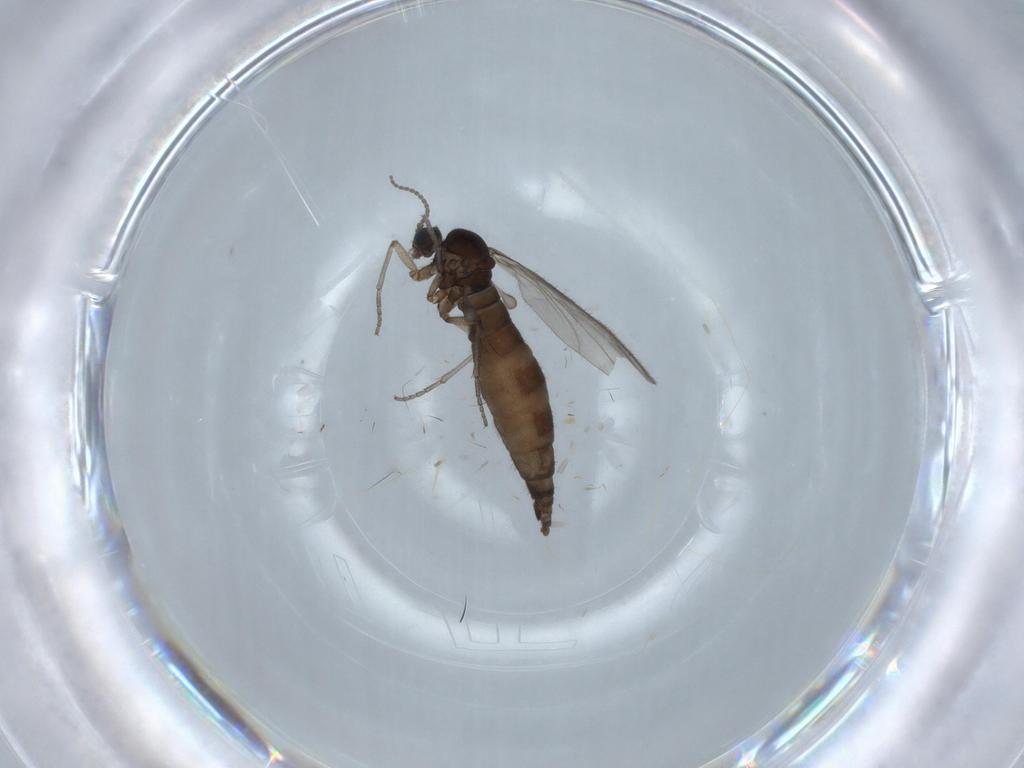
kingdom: Animalia
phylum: Arthropoda
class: Insecta
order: Diptera
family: Sciaridae
